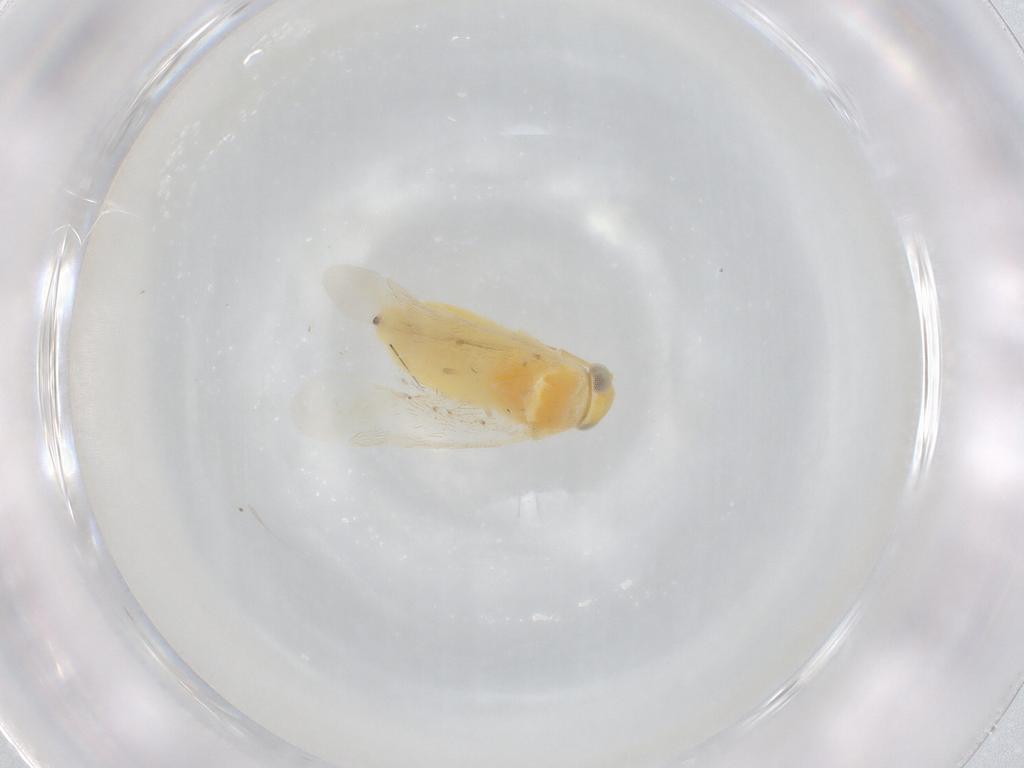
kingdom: Animalia
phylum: Arthropoda
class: Insecta
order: Hemiptera
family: Miridae
